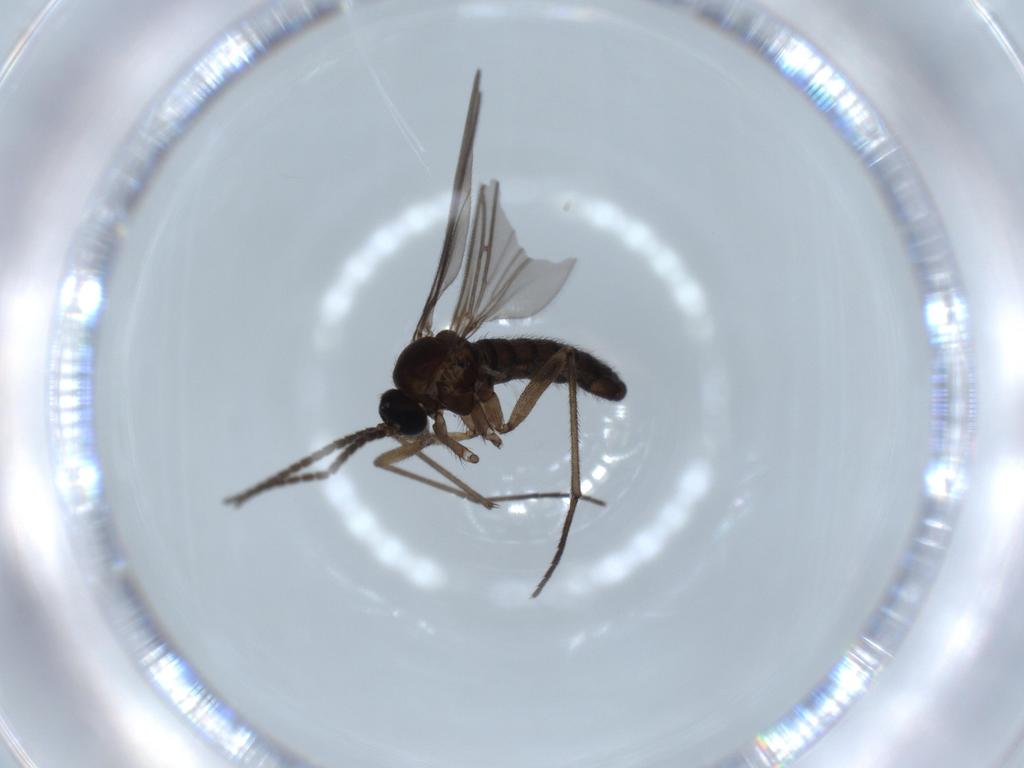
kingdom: Animalia
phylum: Arthropoda
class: Insecta
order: Diptera
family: Sciaridae
